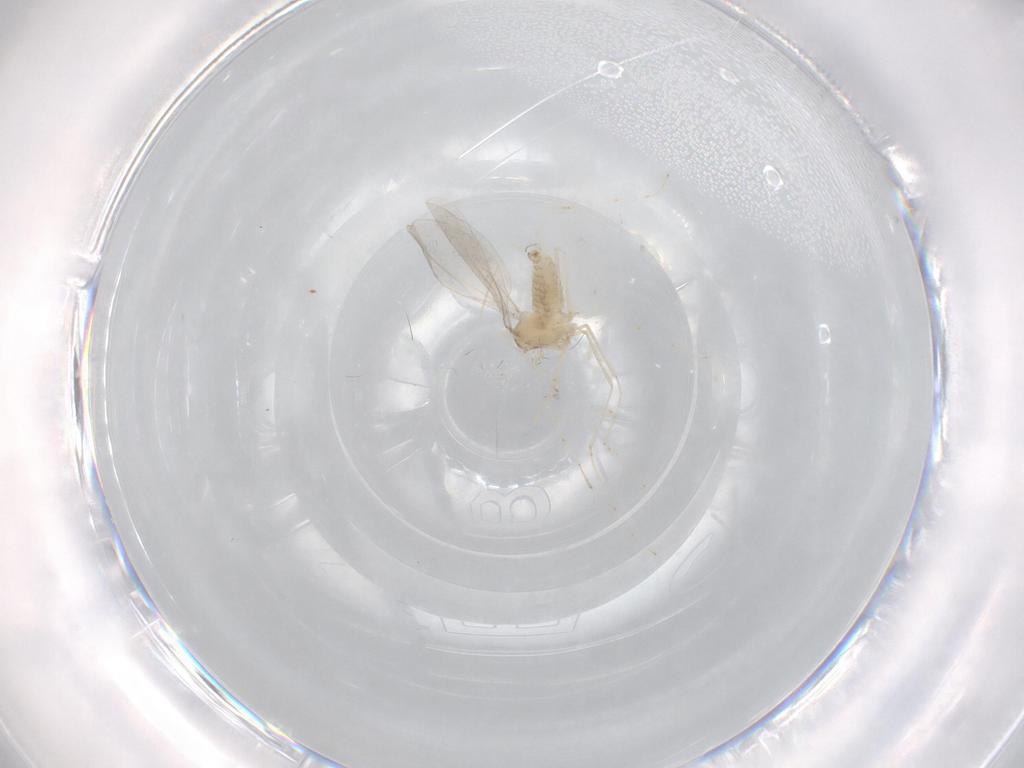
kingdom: Animalia
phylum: Arthropoda
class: Insecta
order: Diptera
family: Cecidomyiidae
